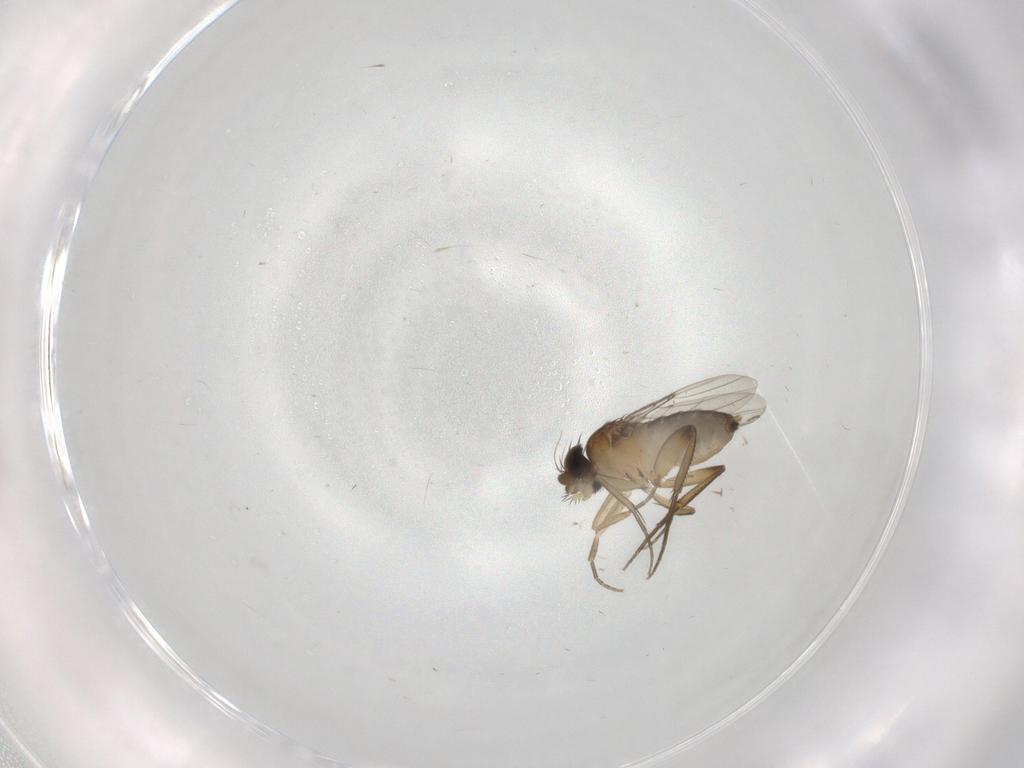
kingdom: Animalia
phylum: Arthropoda
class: Insecta
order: Diptera
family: Phoridae
